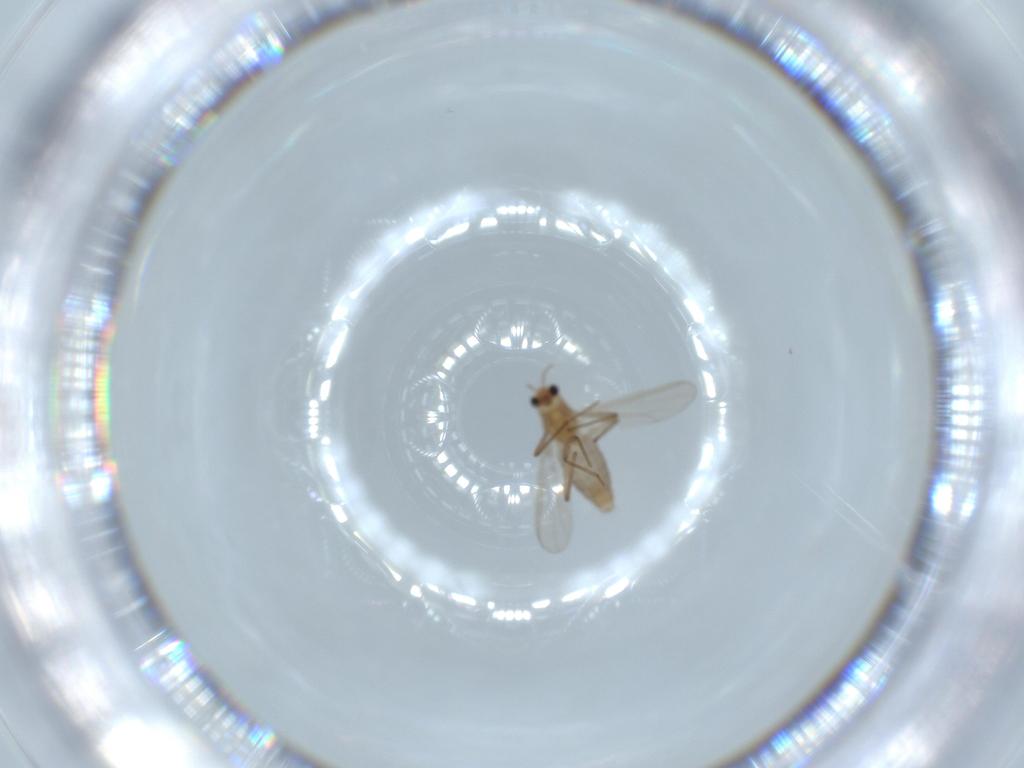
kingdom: Animalia
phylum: Arthropoda
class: Insecta
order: Diptera
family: Chironomidae
